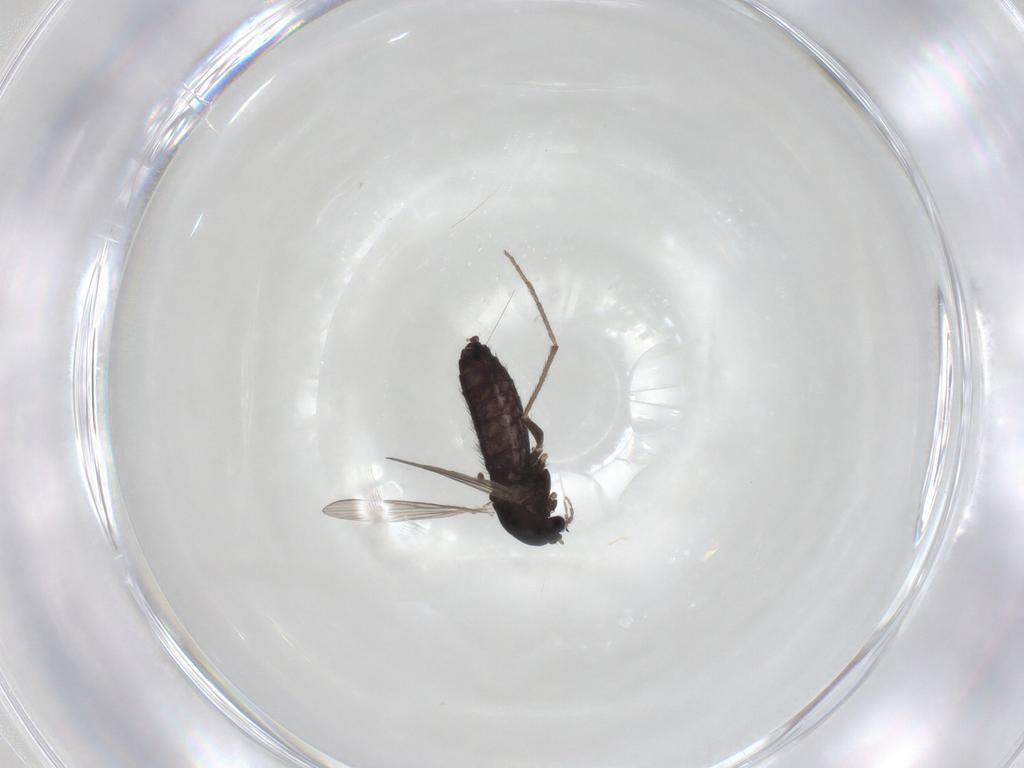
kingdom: Animalia
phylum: Arthropoda
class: Insecta
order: Diptera
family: Chironomidae
